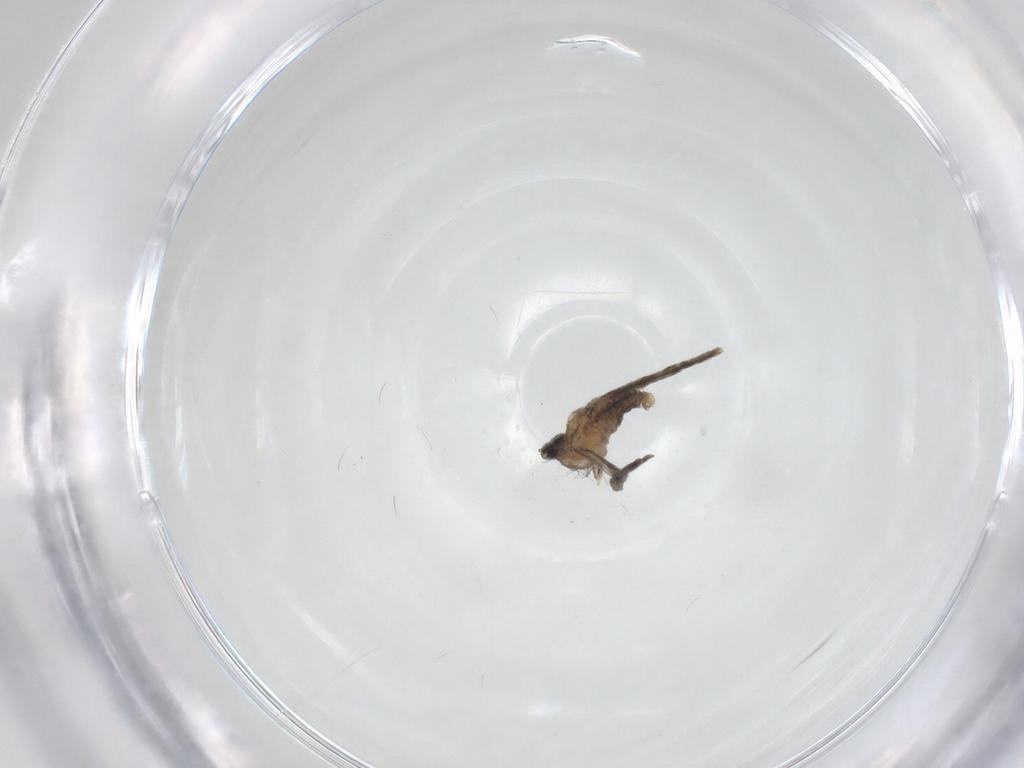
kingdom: Animalia
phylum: Arthropoda
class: Insecta
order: Diptera
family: Cecidomyiidae
